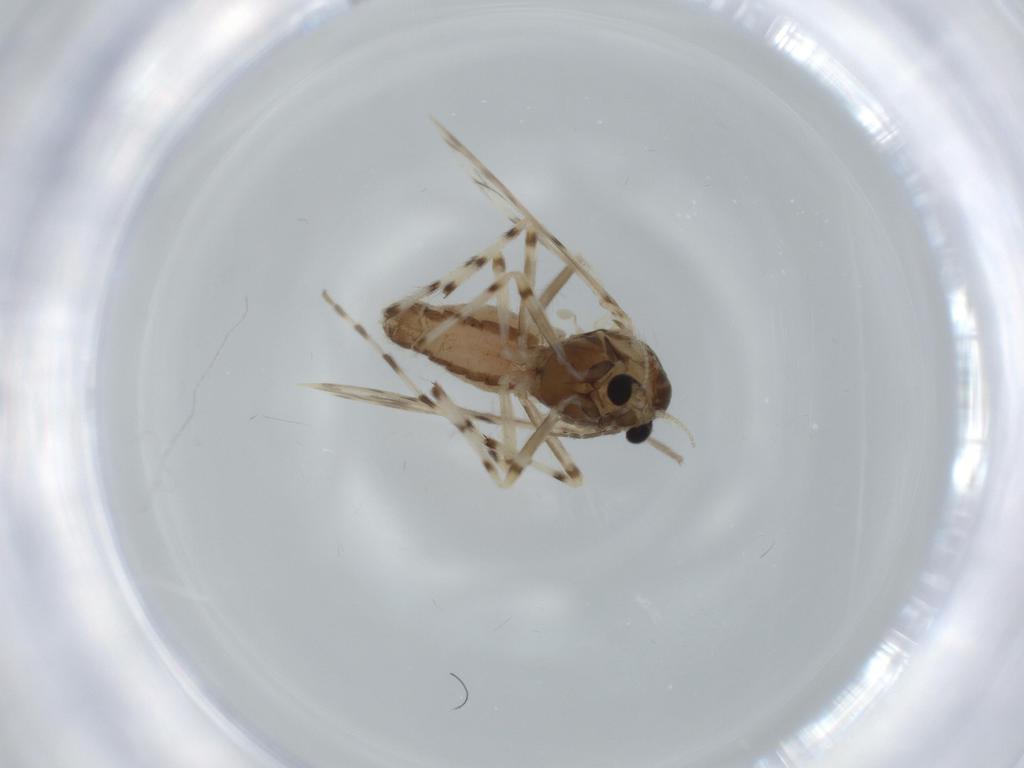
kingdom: Animalia
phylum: Arthropoda
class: Insecta
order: Diptera
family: Chironomidae
